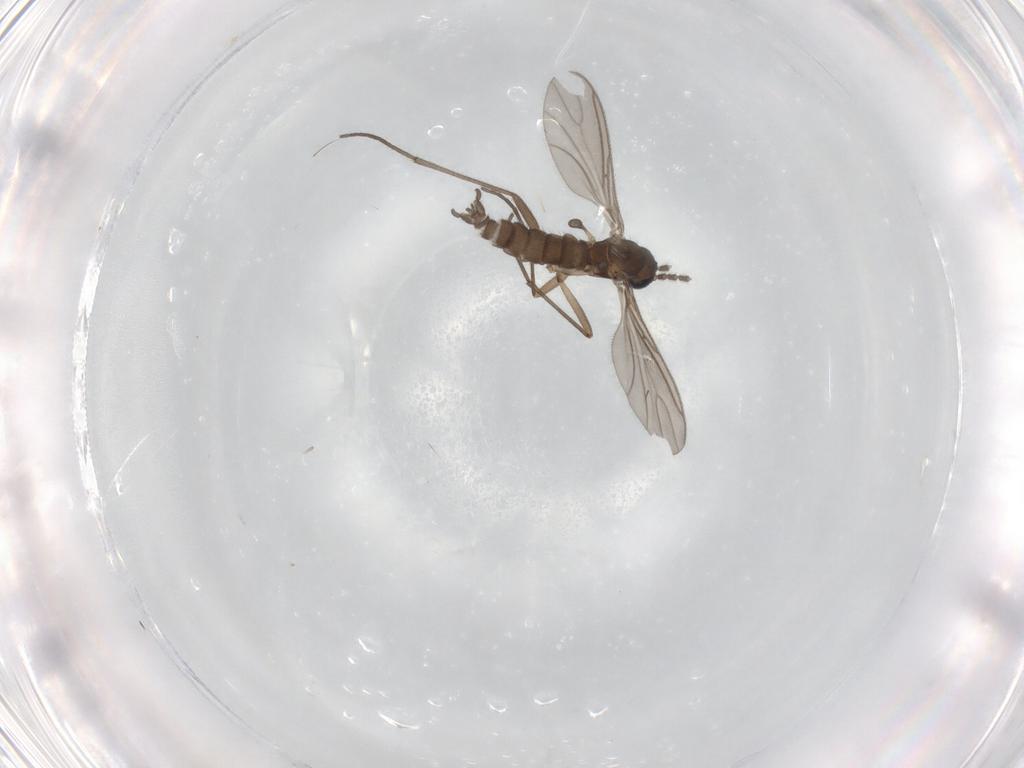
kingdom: Animalia
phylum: Arthropoda
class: Insecta
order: Diptera
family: Sciaridae
